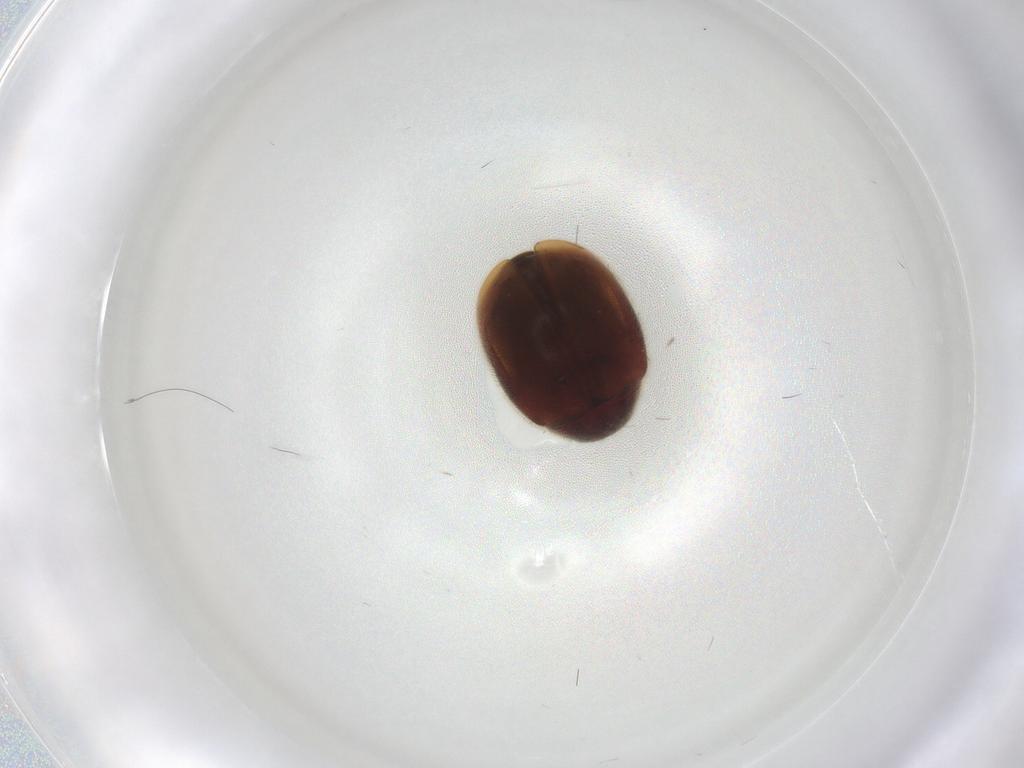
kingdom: Animalia
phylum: Arthropoda
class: Insecta
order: Coleoptera
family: Coccinellidae
